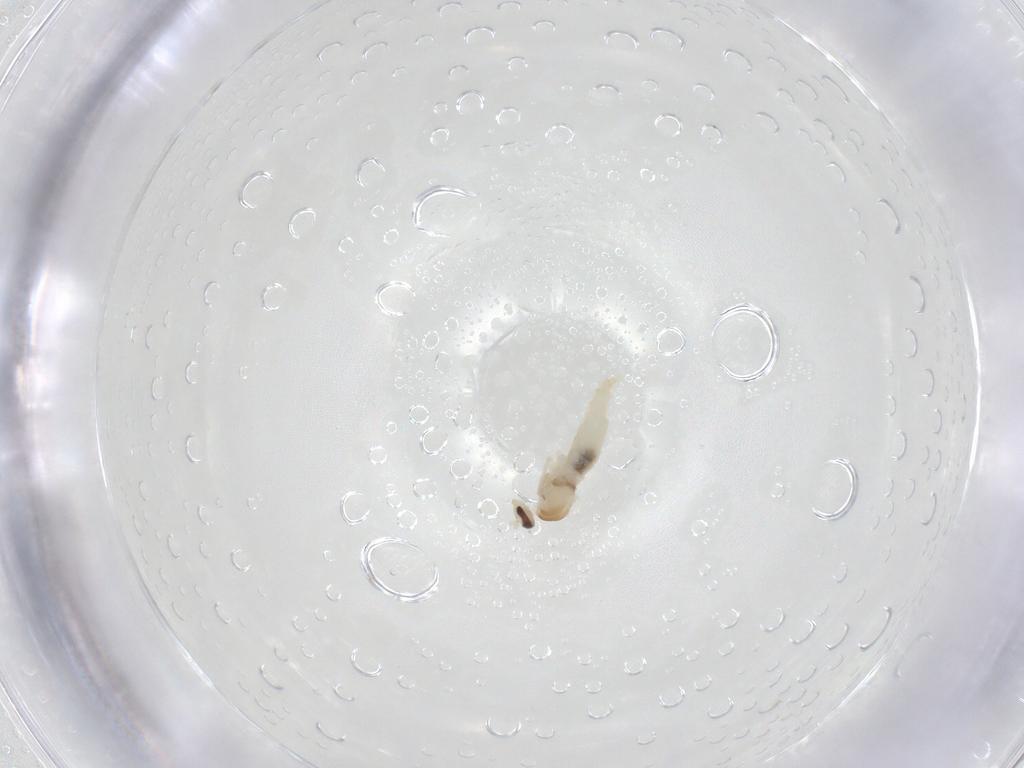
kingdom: Animalia
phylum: Arthropoda
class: Insecta
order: Diptera
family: Cecidomyiidae
